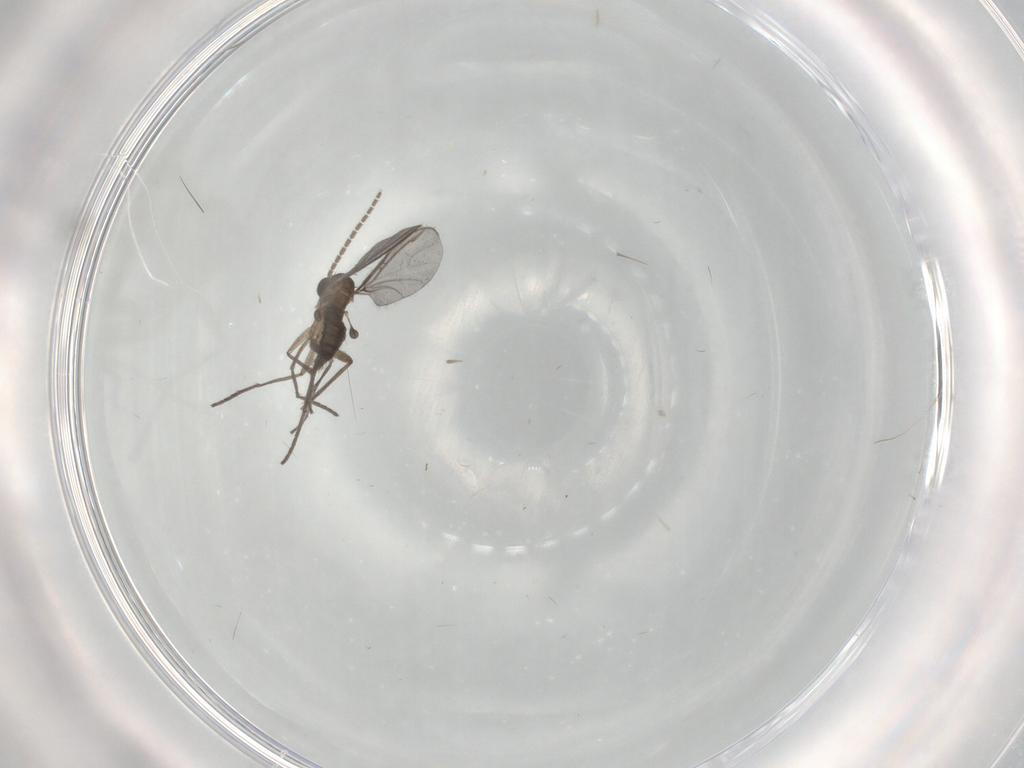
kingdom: Animalia
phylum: Arthropoda
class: Insecta
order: Diptera
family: Sciaridae
